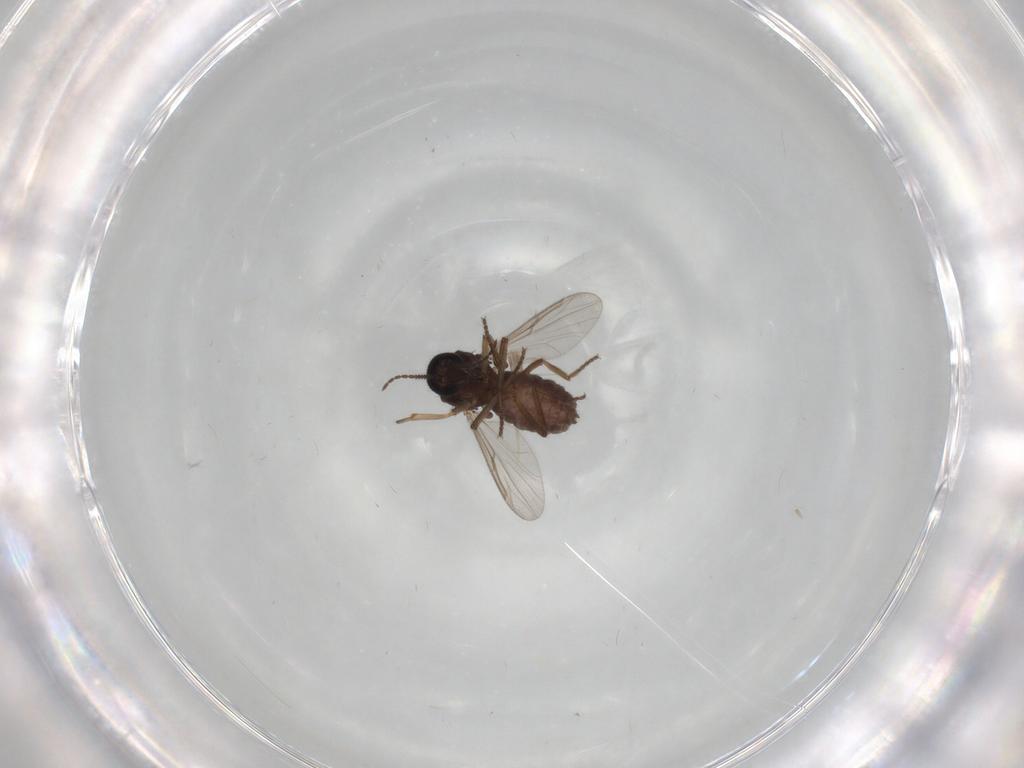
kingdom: Animalia
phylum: Arthropoda
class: Insecta
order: Diptera
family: Ceratopogonidae
